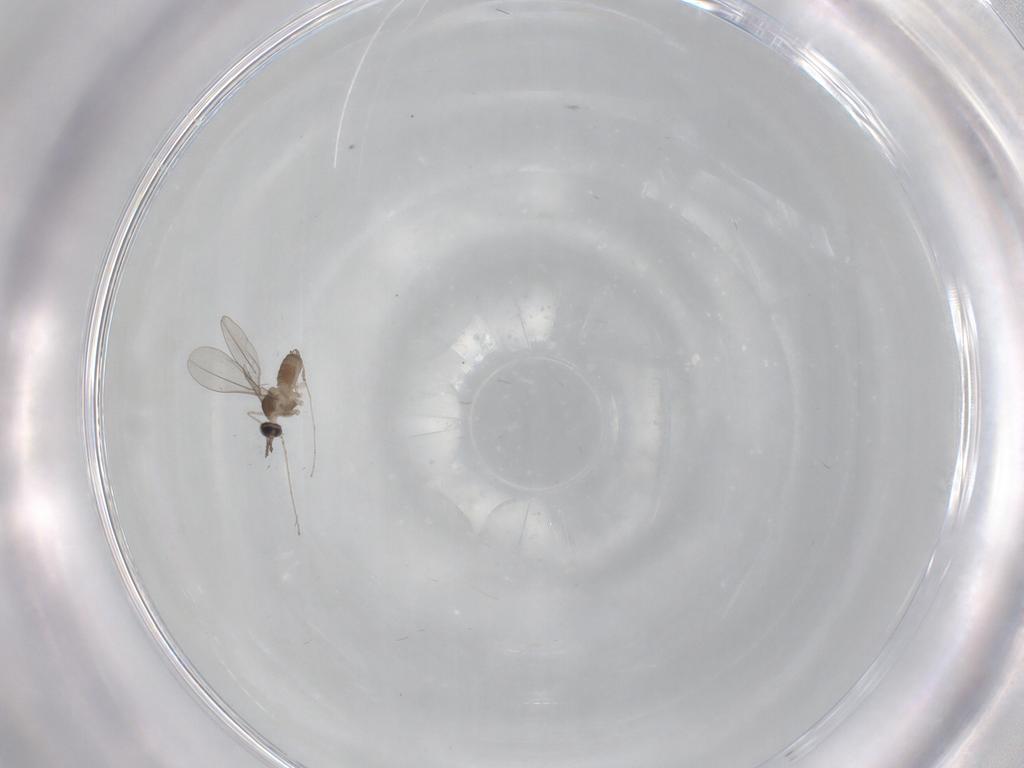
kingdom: Animalia
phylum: Arthropoda
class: Insecta
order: Diptera
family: Cecidomyiidae
